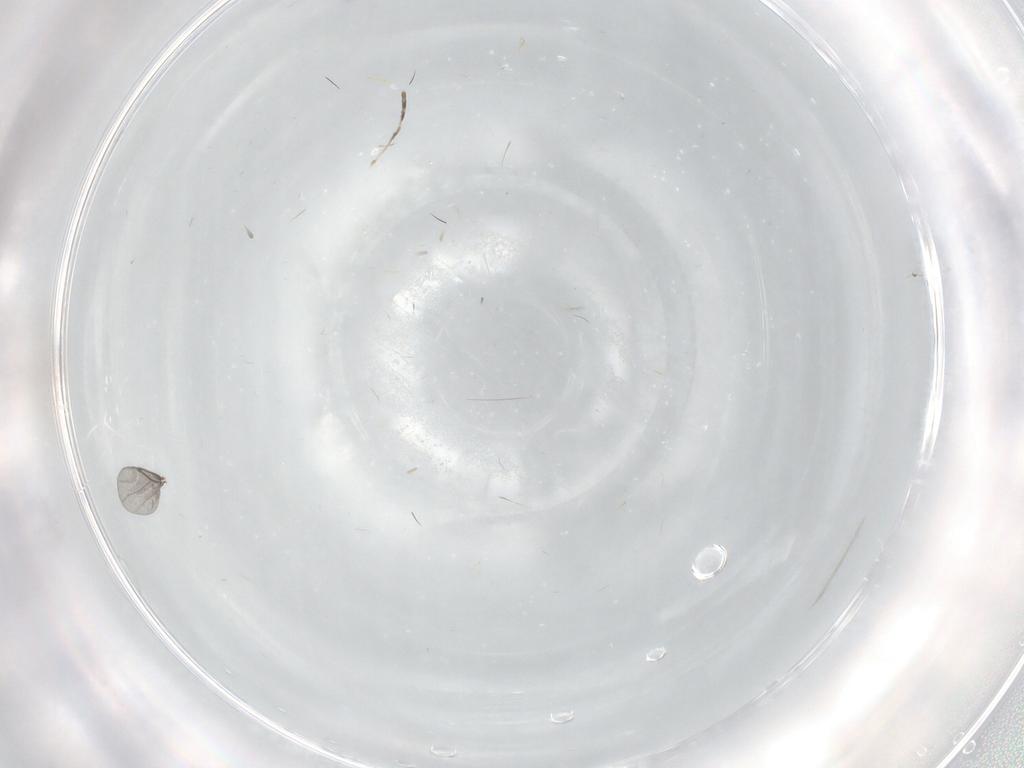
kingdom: Animalia
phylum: Arthropoda
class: Insecta
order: Diptera
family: Cecidomyiidae
